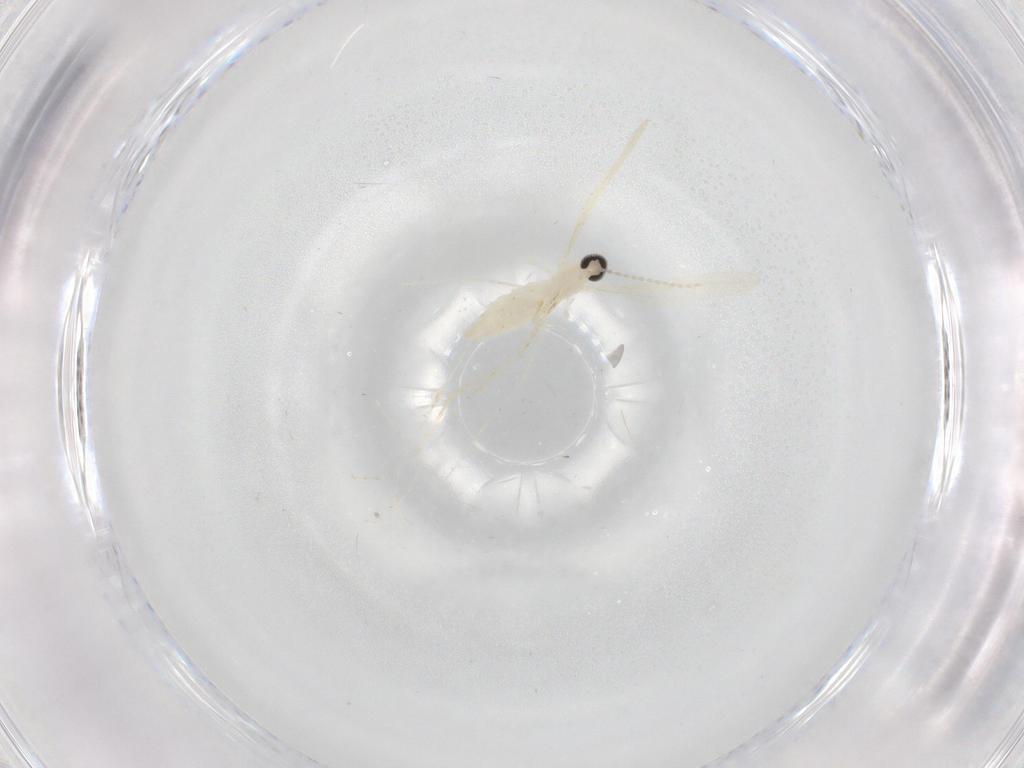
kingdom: Animalia
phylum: Arthropoda
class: Insecta
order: Diptera
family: Cecidomyiidae
